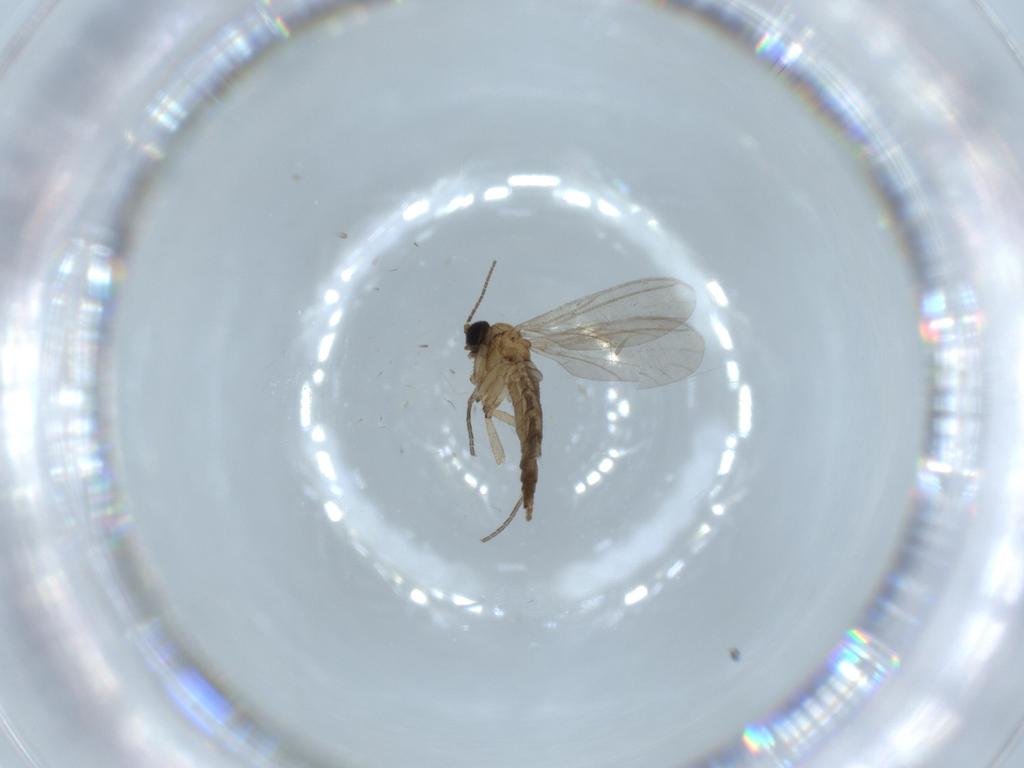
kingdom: Animalia
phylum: Arthropoda
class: Insecta
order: Diptera
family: Sciaridae
